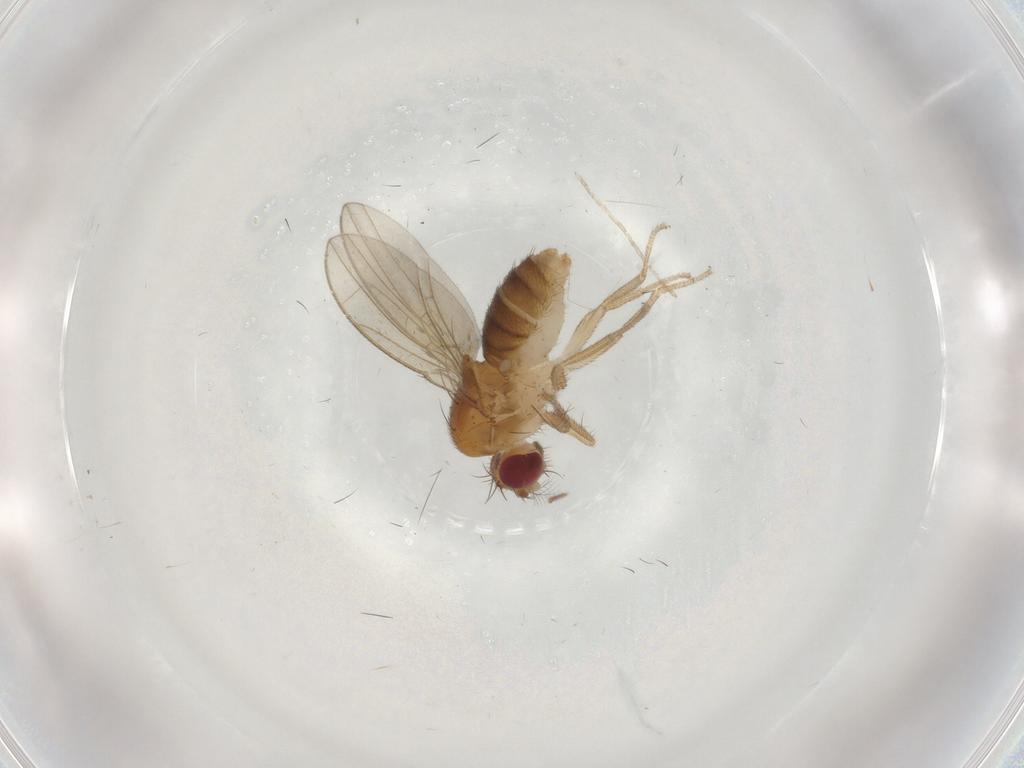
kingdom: Animalia
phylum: Arthropoda
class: Insecta
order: Diptera
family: Drosophilidae
